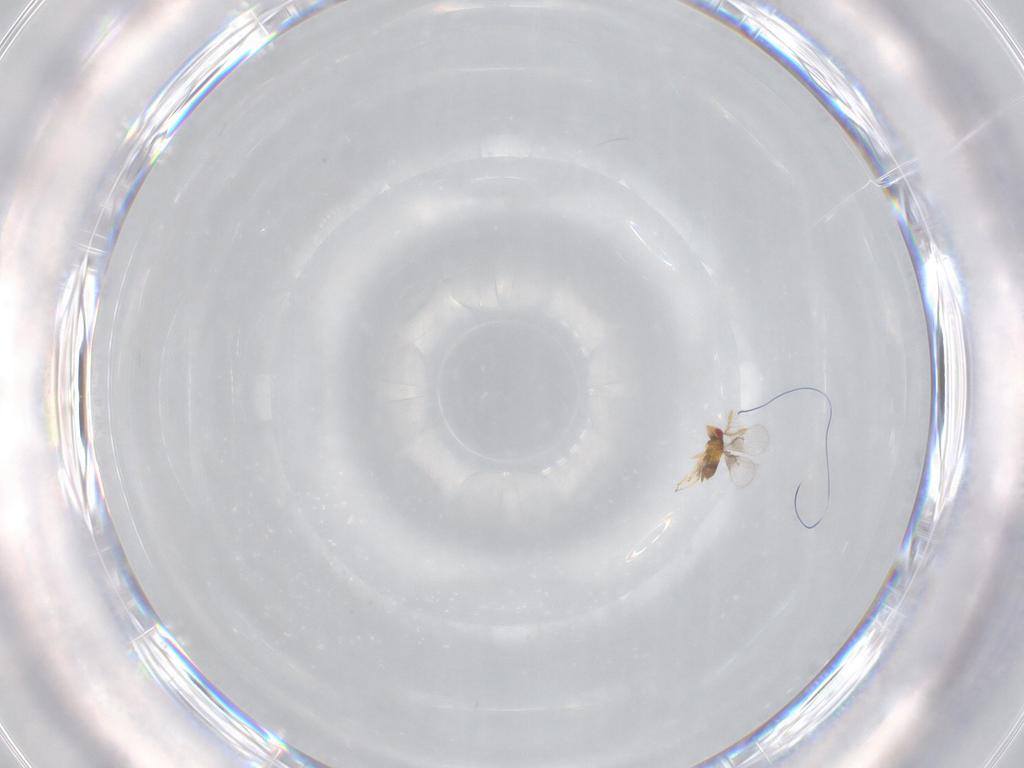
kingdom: Animalia
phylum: Arthropoda
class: Insecta
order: Hymenoptera
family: Trichogrammatidae
